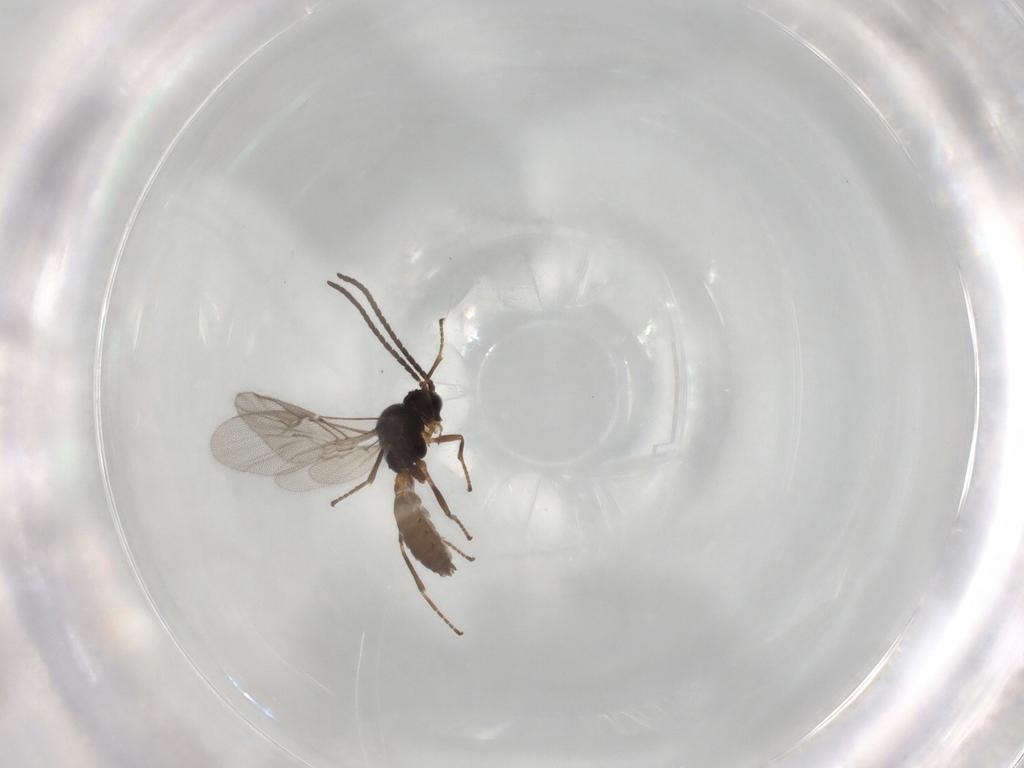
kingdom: Animalia
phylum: Arthropoda
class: Insecta
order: Hymenoptera
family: Braconidae
